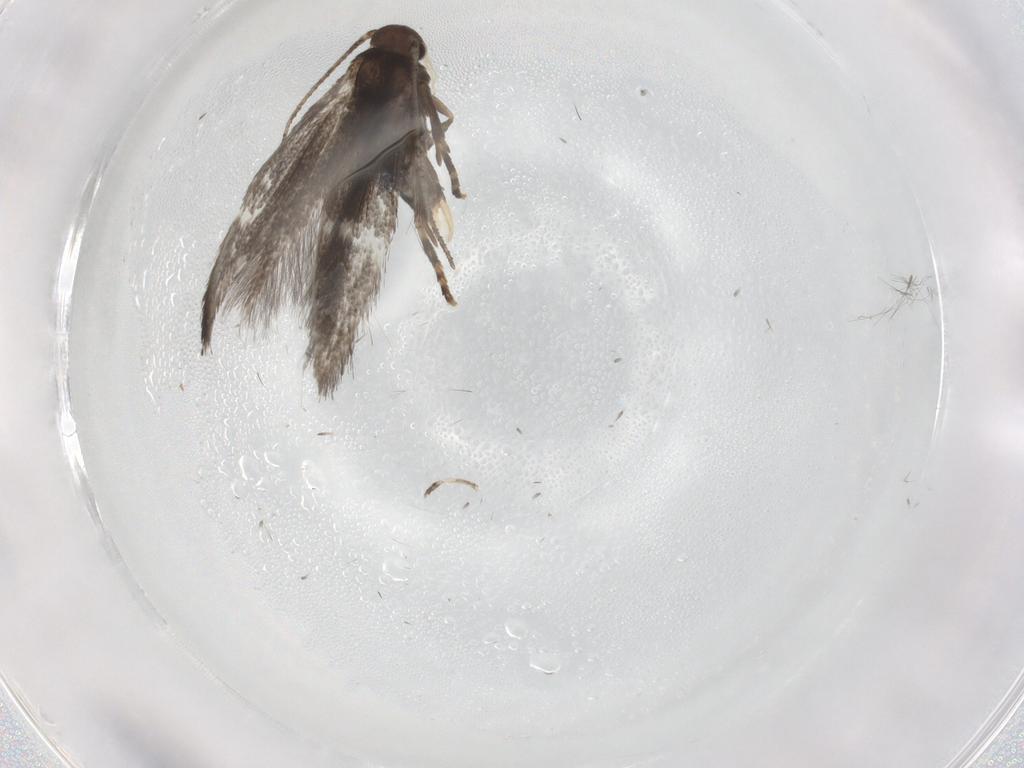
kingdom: Animalia
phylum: Arthropoda
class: Insecta
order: Lepidoptera
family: Elachistidae
